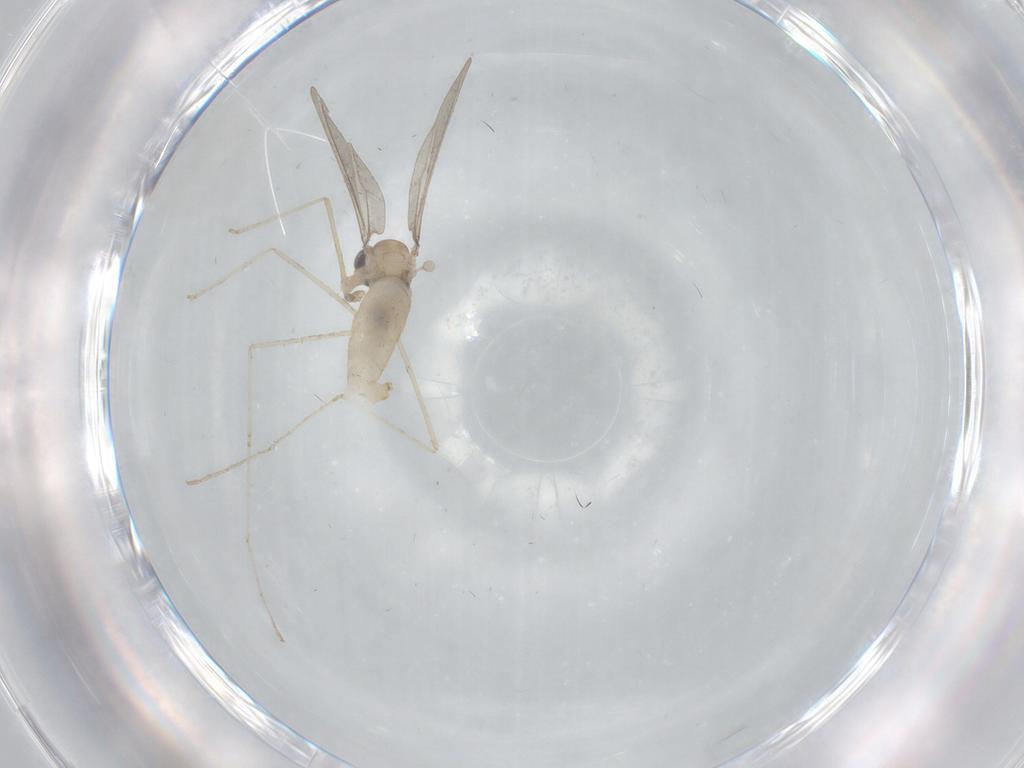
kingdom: Animalia
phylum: Arthropoda
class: Insecta
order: Diptera
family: Cecidomyiidae
